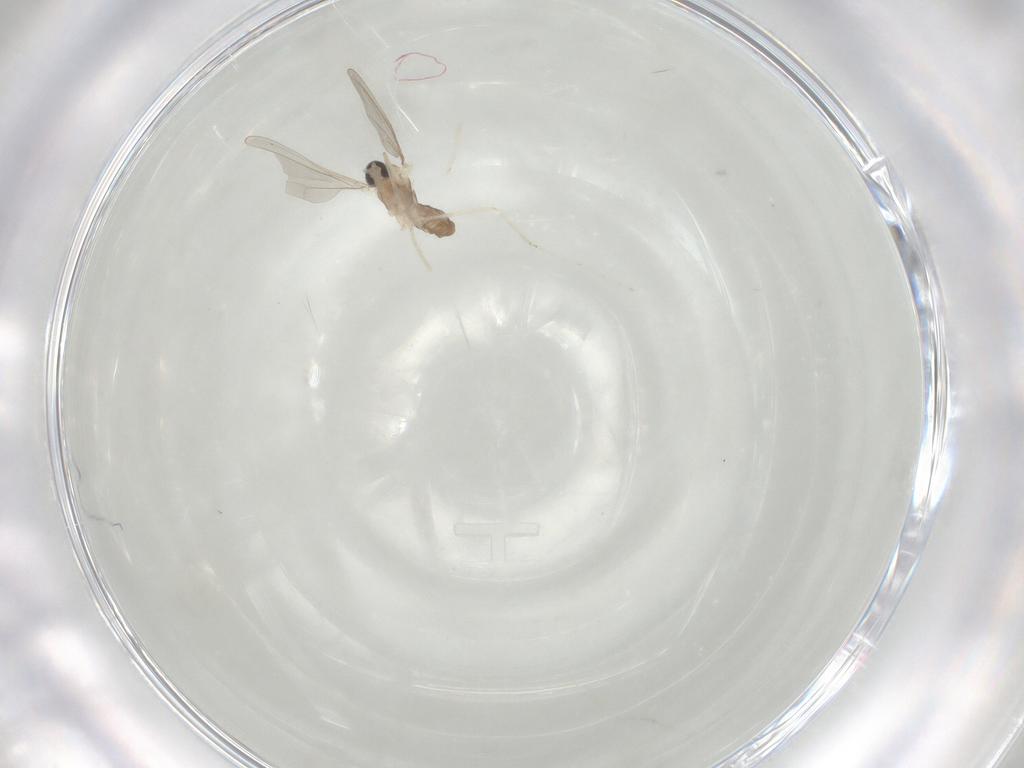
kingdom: Animalia
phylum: Arthropoda
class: Insecta
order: Diptera
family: Cecidomyiidae
